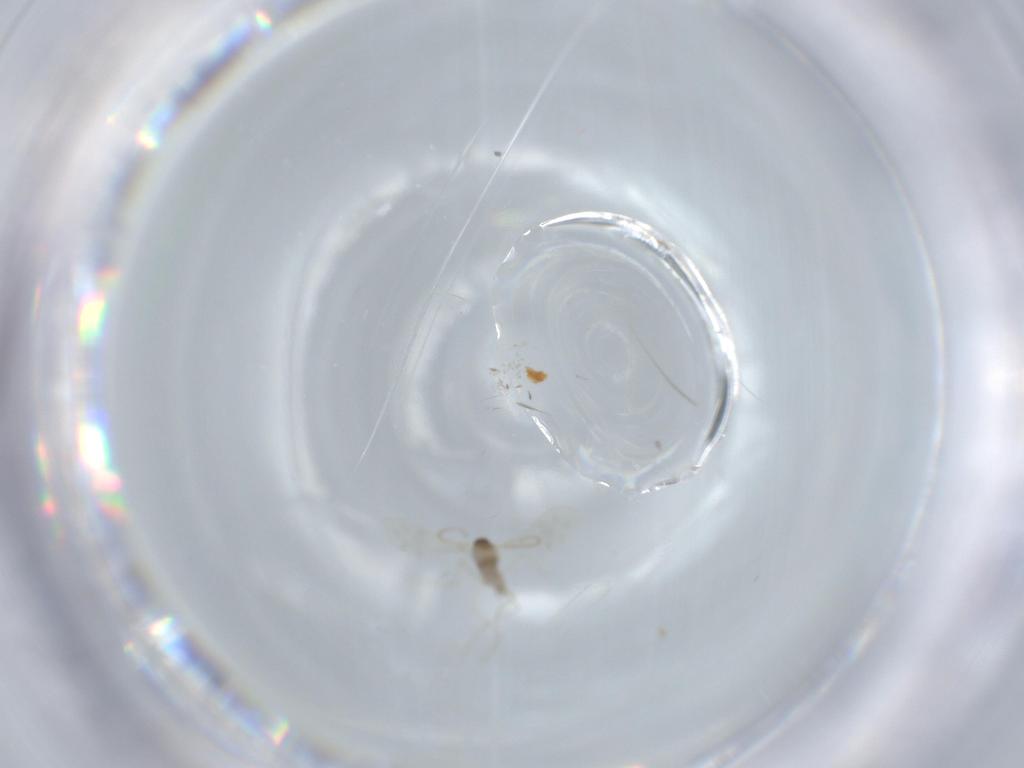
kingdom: Animalia
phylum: Arthropoda
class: Insecta
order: Diptera
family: Cecidomyiidae
